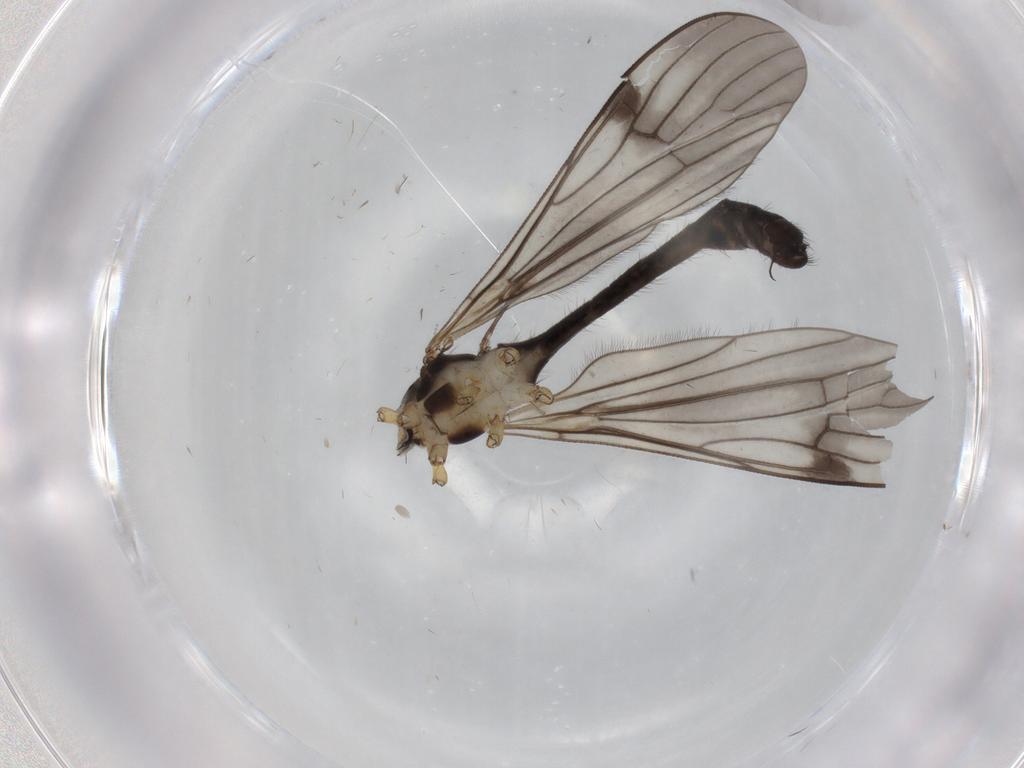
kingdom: Animalia
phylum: Arthropoda
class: Insecta
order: Diptera
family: Limoniidae
